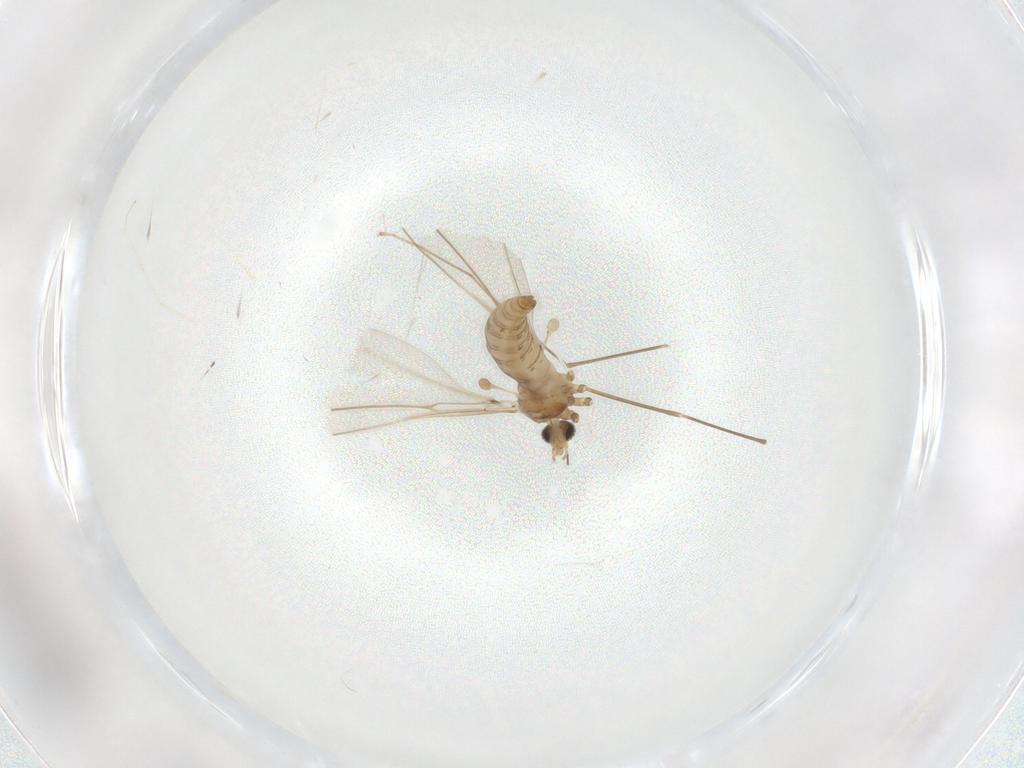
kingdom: Animalia
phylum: Arthropoda
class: Insecta
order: Diptera
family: Cecidomyiidae
